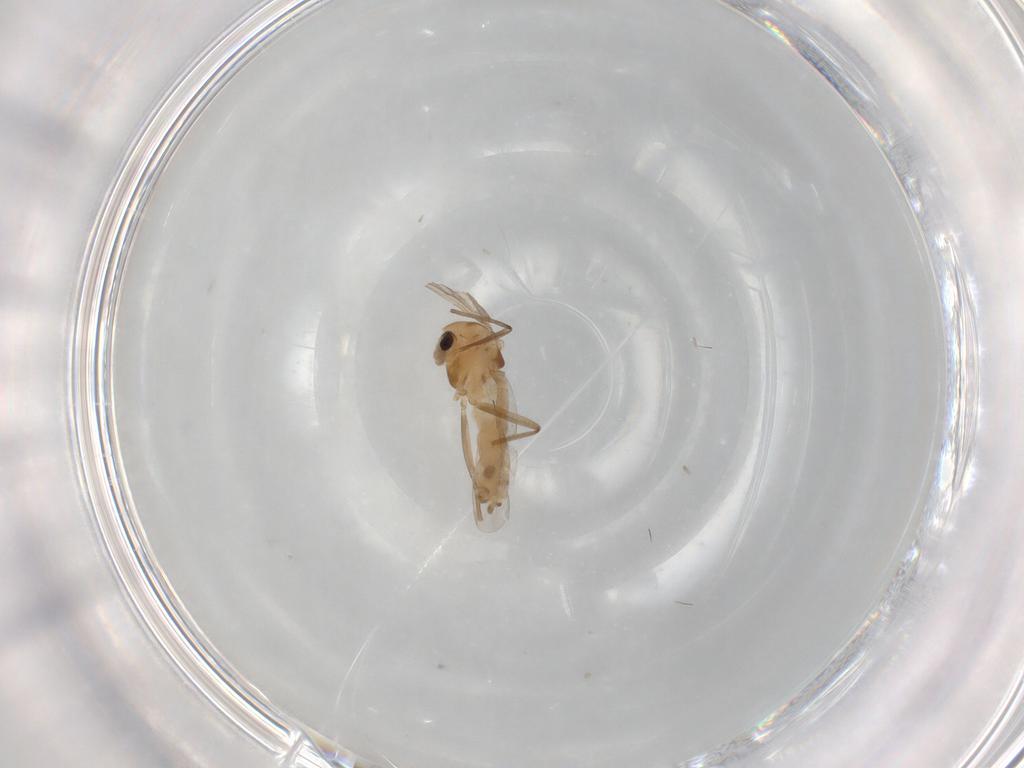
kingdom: Animalia
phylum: Arthropoda
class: Insecta
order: Diptera
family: Chironomidae
